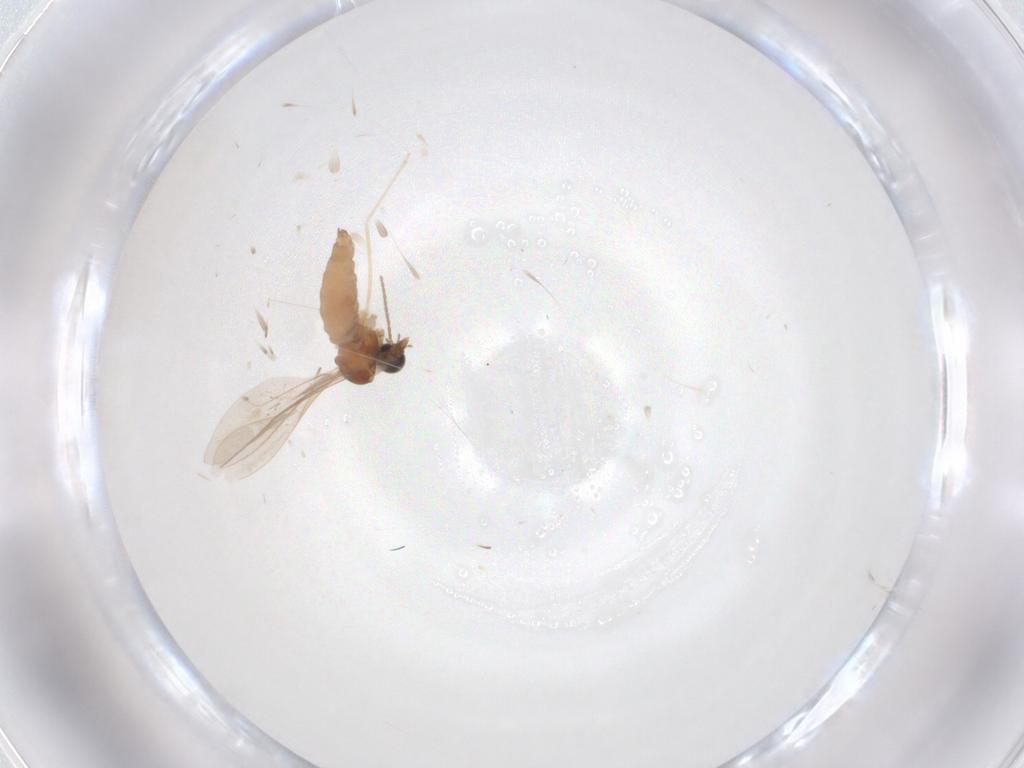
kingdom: Animalia
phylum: Arthropoda
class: Insecta
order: Diptera
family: Cecidomyiidae
